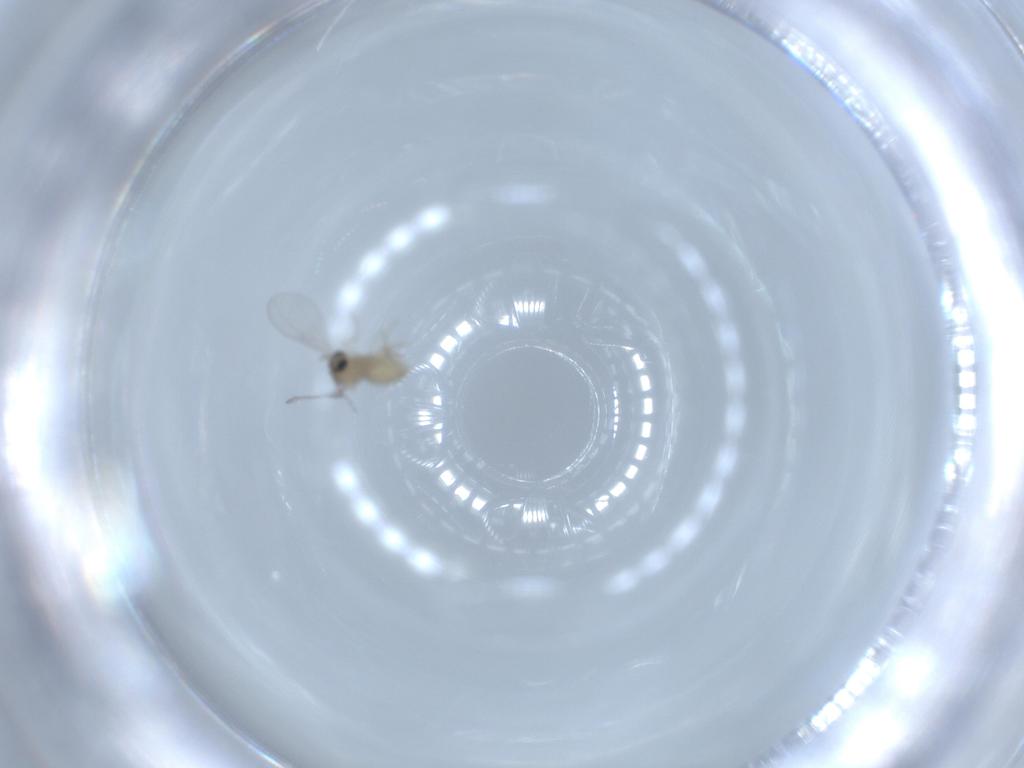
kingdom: Animalia
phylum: Arthropoda
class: Insecta
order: Diptera
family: Cecidomyiidae
